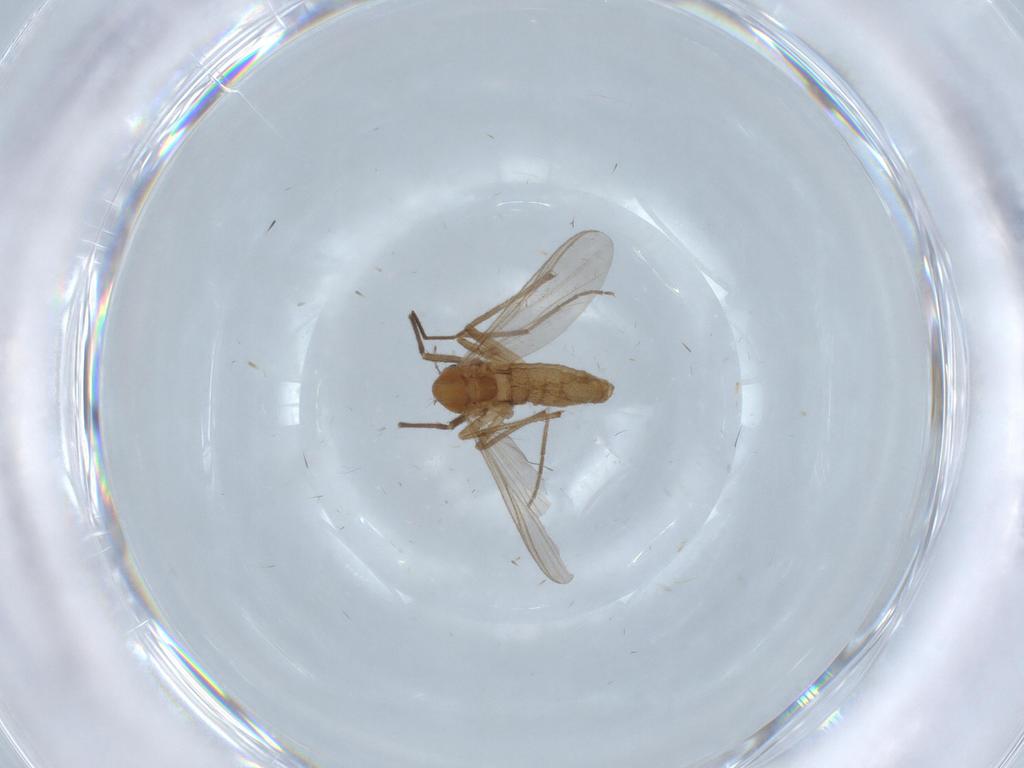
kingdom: Animalia
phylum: Arthropoda
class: Insecta
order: Diptera
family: Chironomidae
